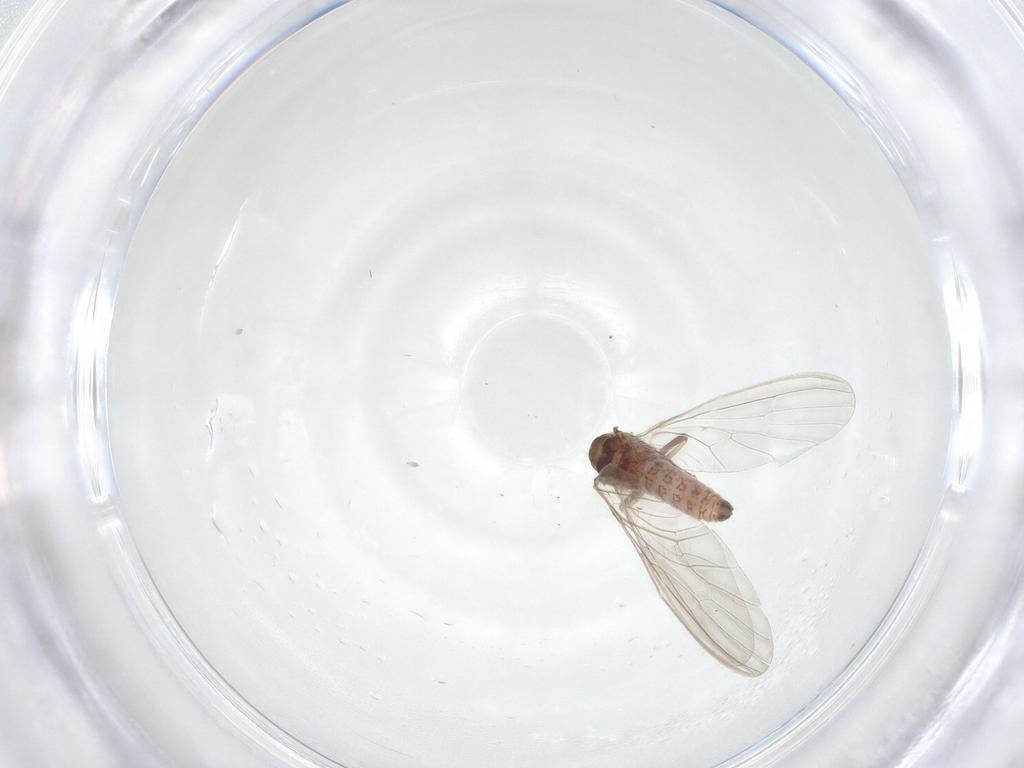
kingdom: Animalia
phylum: Arthropoda
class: Insecta
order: Neuroptera
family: Coniopterygidae
